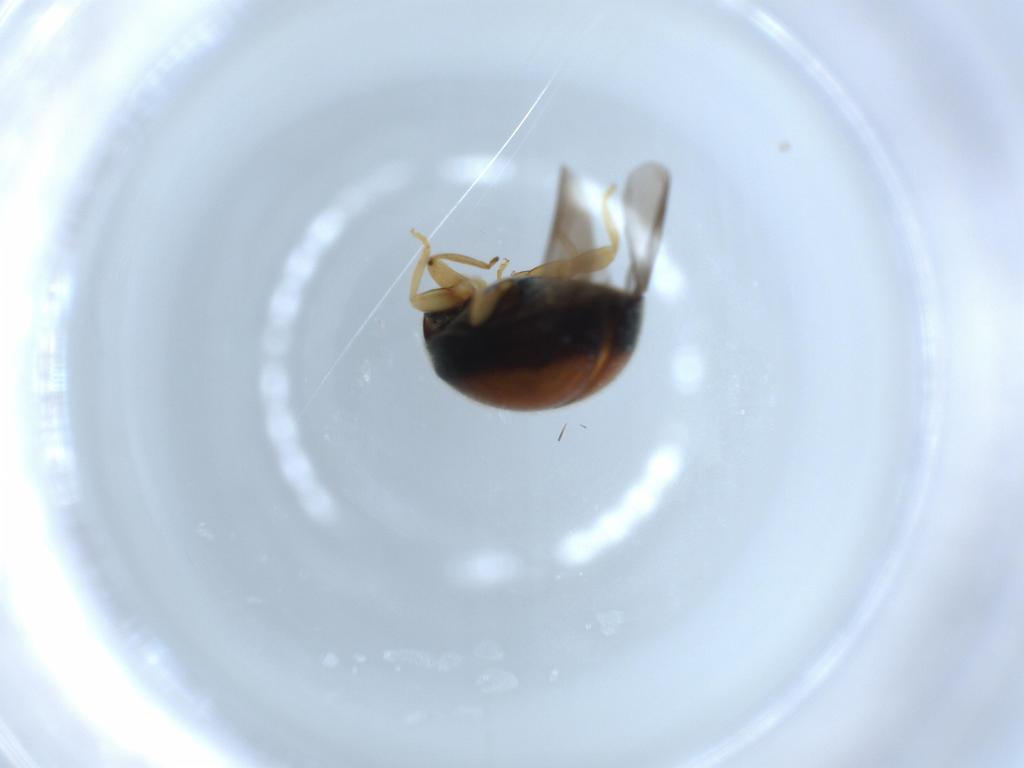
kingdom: Animalia
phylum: Arthropoda
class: Insecta
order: Coleoptera
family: Coccinellidae
